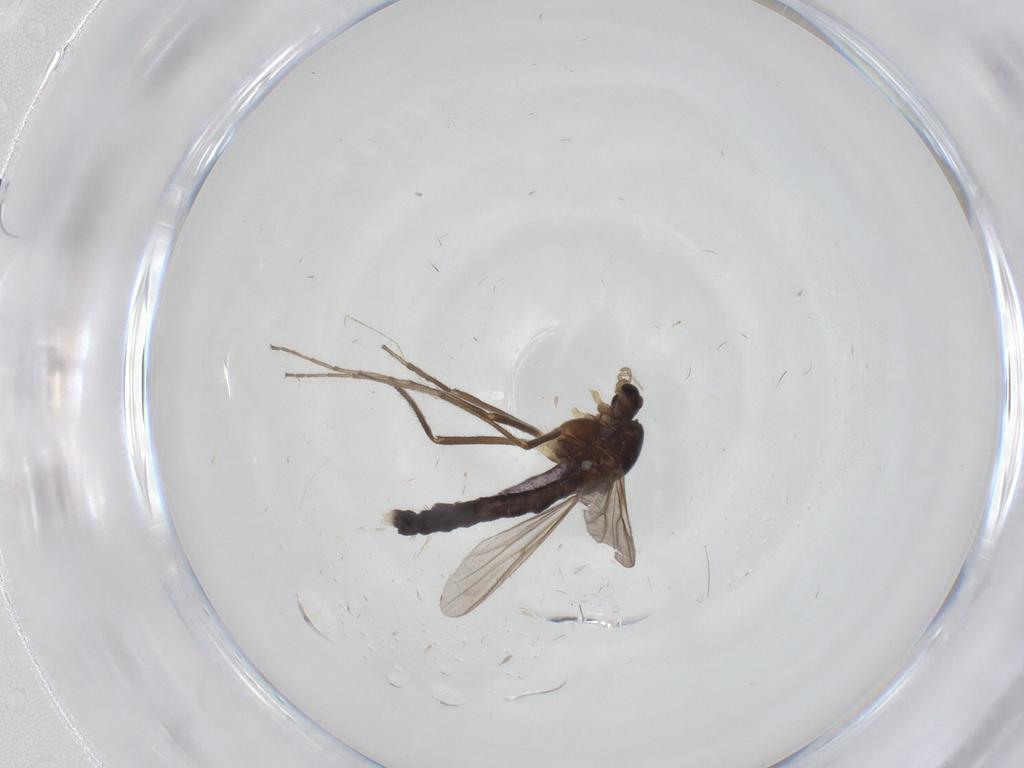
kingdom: Animalia
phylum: Arthropoda
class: Insecta
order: Diptera
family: Chironomidae
